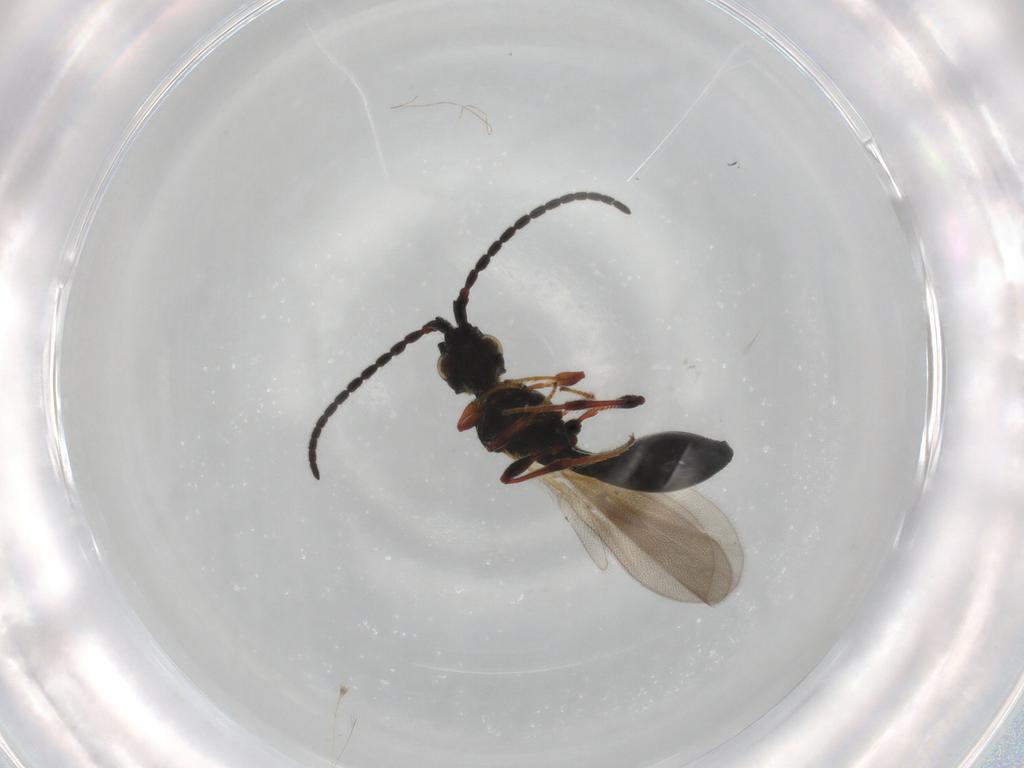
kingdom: Animalia
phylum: Arthropoda
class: Insecta
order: Hymenoptera
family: Diapriidae
